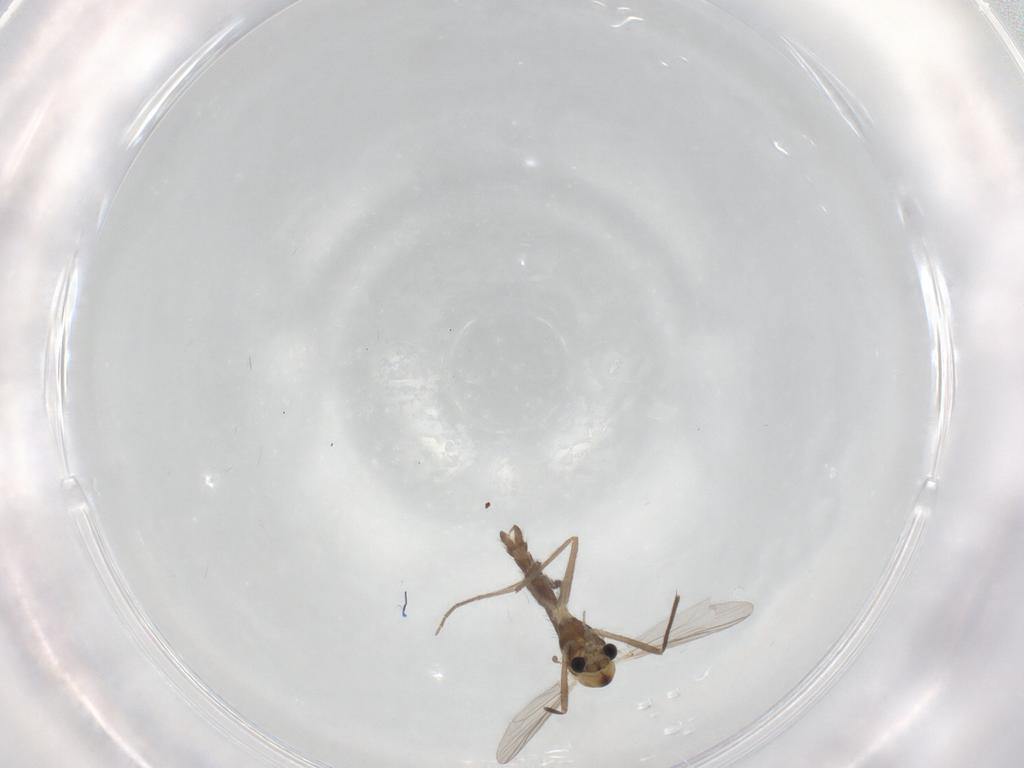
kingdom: Animalia
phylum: Arthropoda
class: Insecta
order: Diptera
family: Chironomidae
